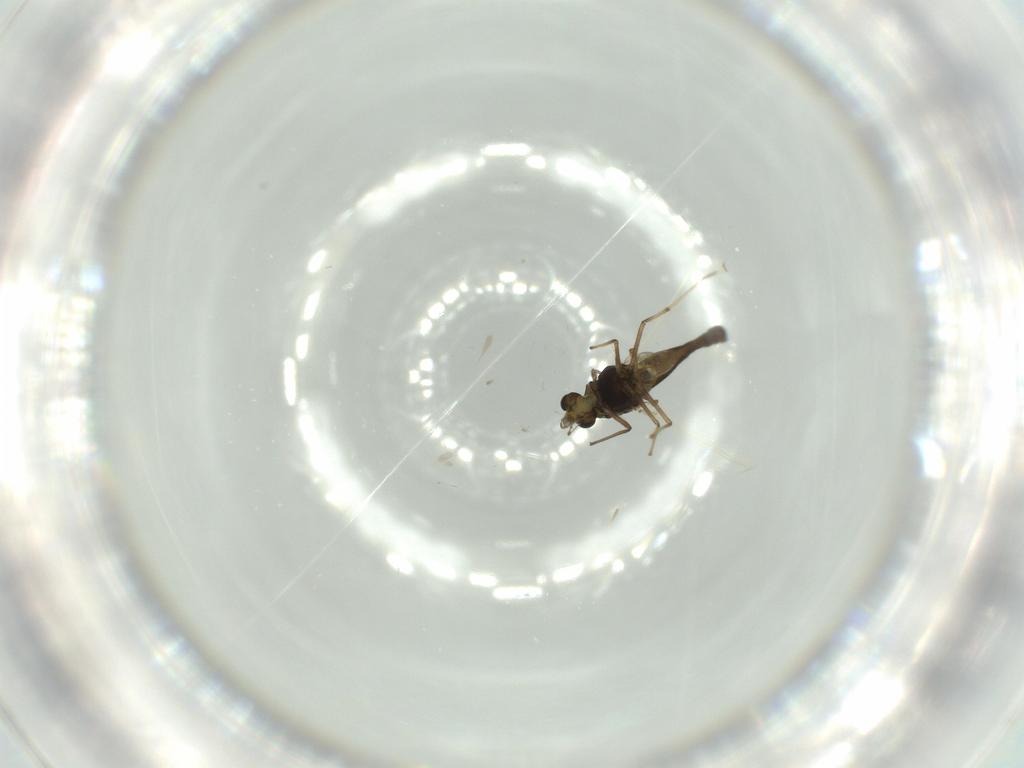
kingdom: Animalia
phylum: Arthropoda
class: Insecta
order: Diptera
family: Chironomidae
